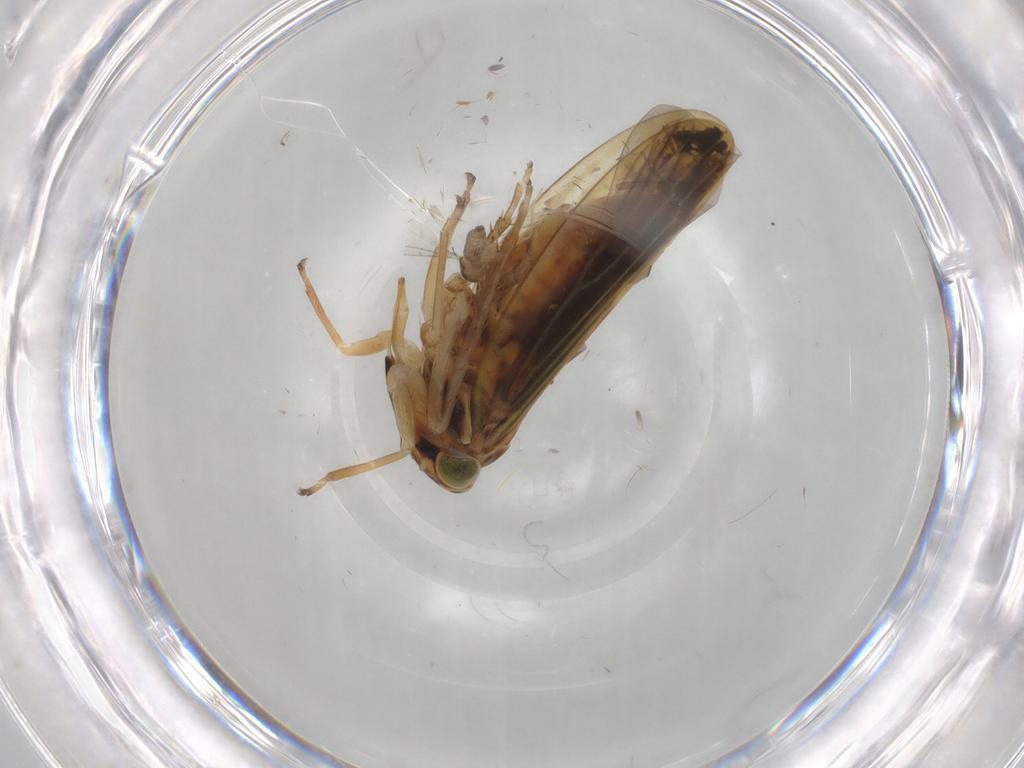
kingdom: Animalia
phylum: Arthropoda
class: Insecta
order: Hemiptera
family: Cicadellidae
